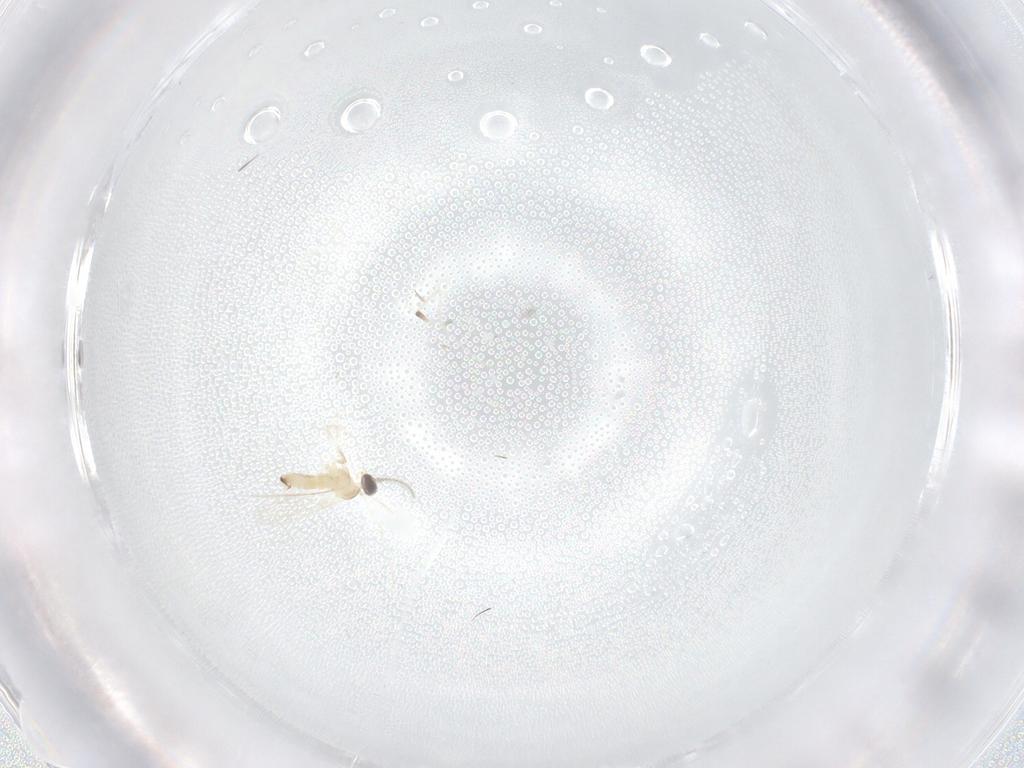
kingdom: Animalia
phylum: Arthropoda
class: Insecta
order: Diptera
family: Cecidomyiidae
